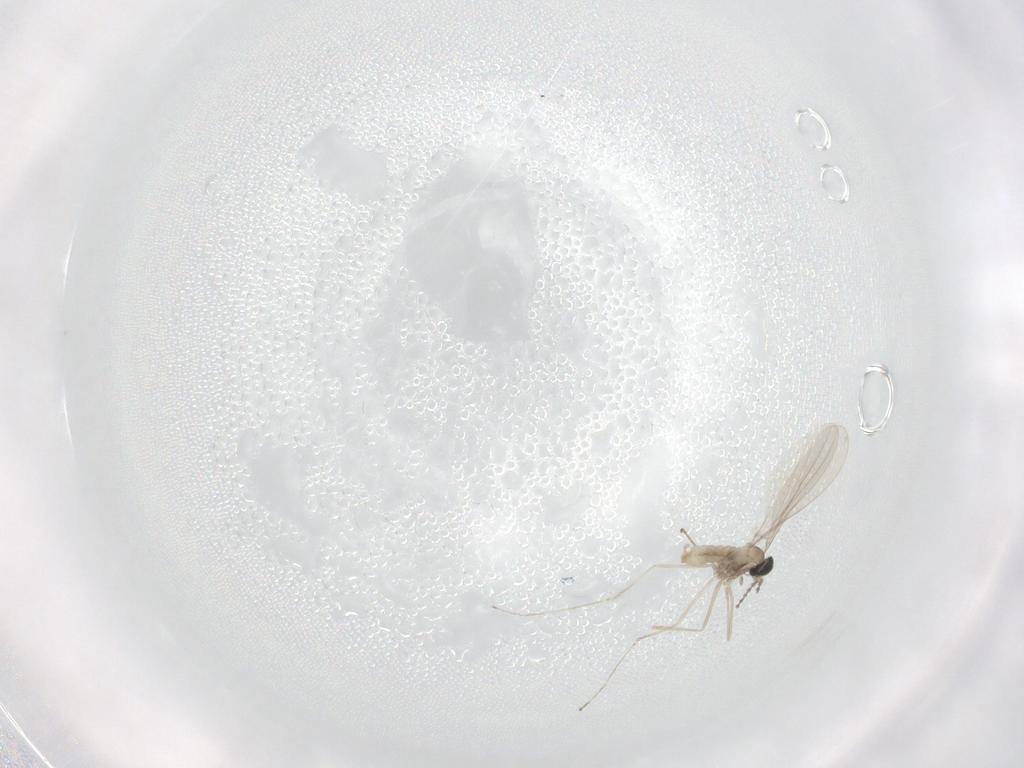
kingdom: Animalia
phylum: Arthropoda
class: Insecta
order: Diptera
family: Cecidomyiidae
